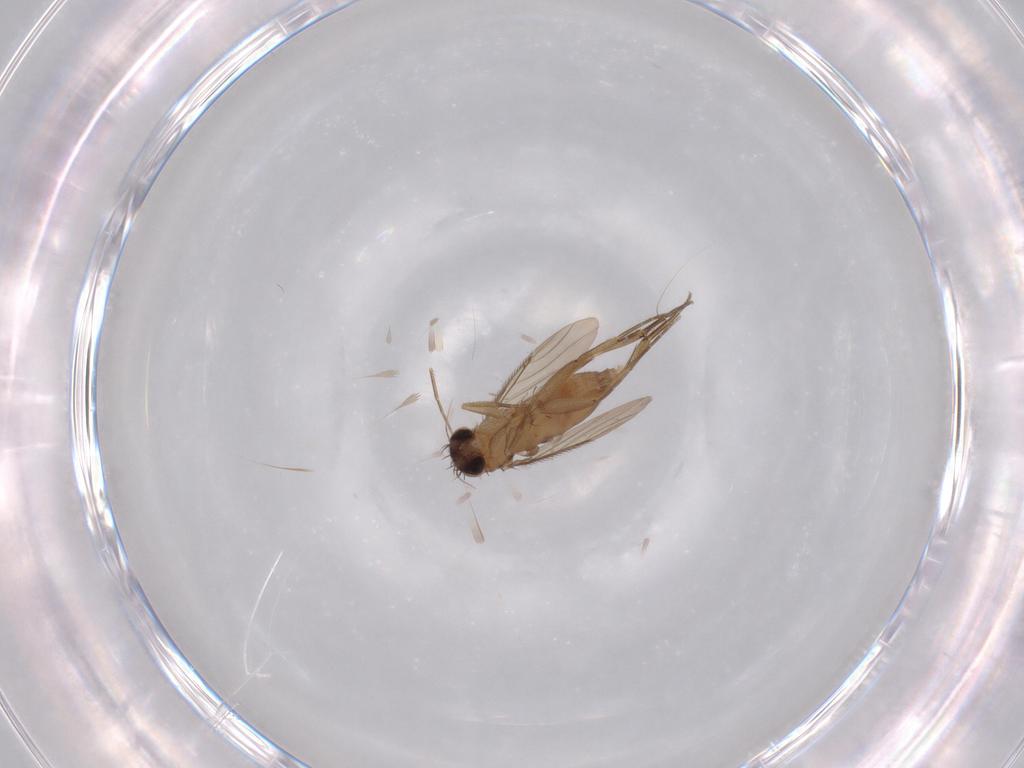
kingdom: Animalia
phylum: Arthropoda
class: Insecta
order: Diptera
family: Phoridae
